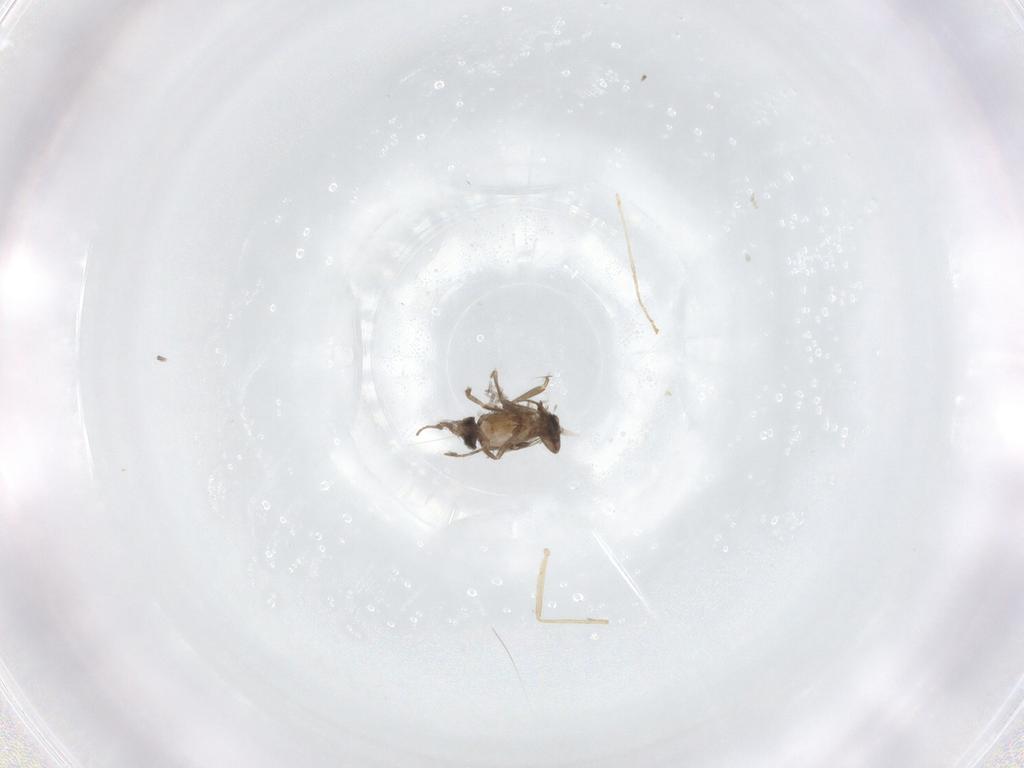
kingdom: Animalia
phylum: Arthropoda
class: Insecta
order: Diptera
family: Cecidomyiidae
